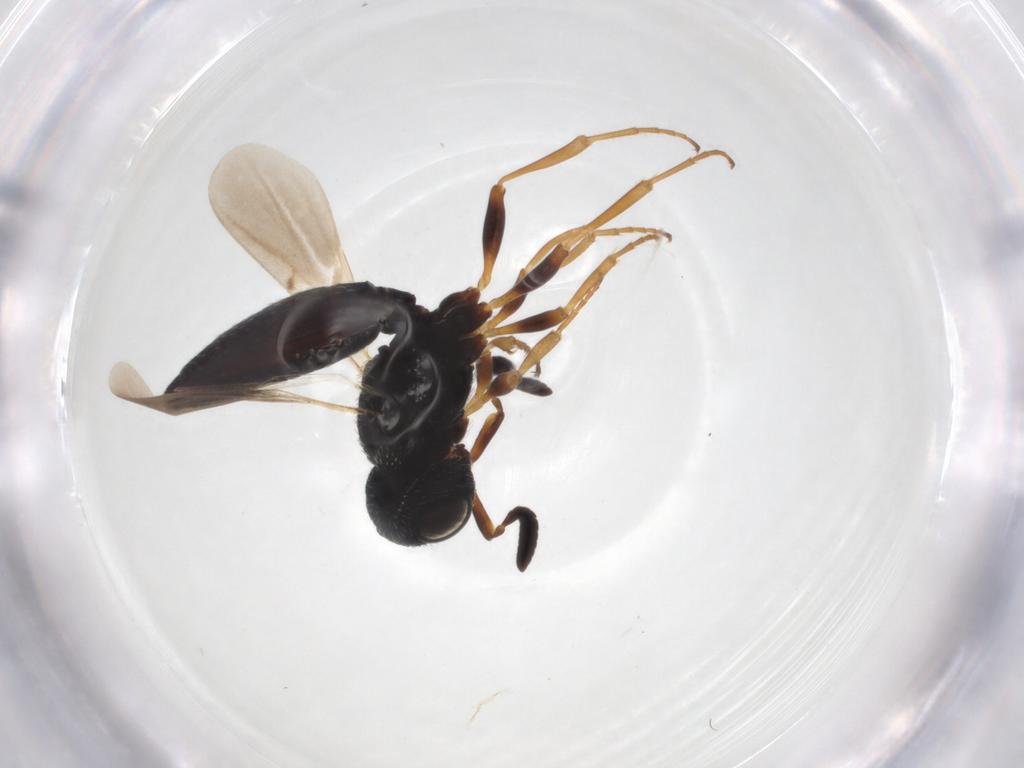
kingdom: Animalia
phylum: Arthropoda
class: Insecta
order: Hymenoptera
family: Scelionidae
